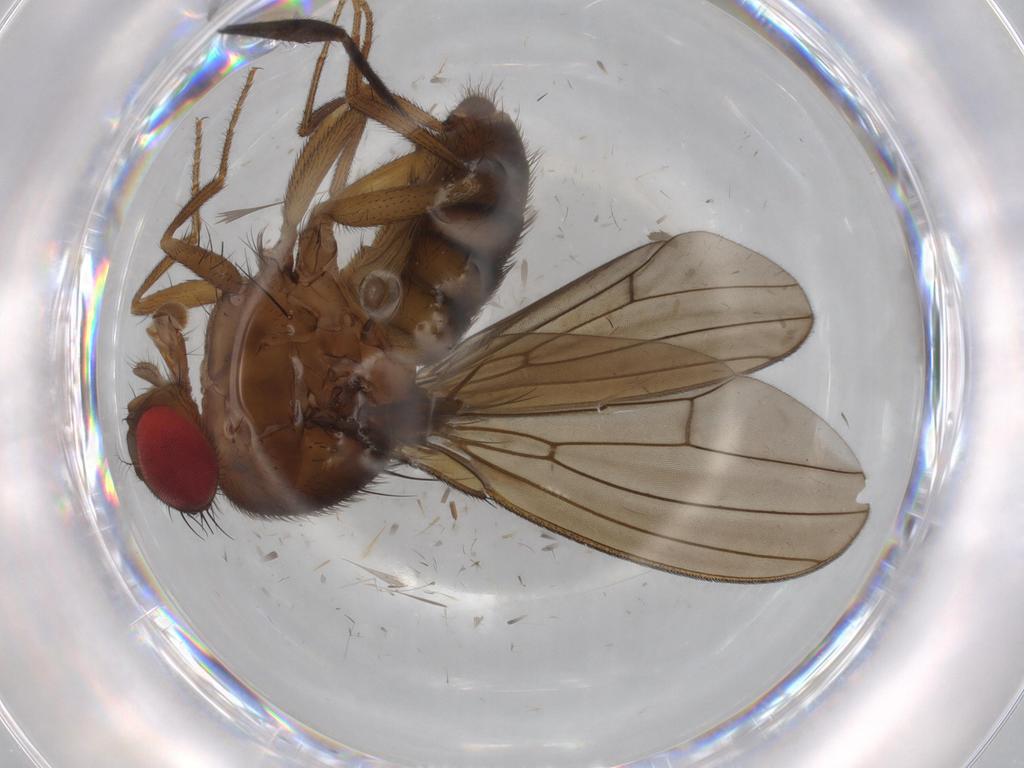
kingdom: Animalia
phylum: Arthropoda
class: Insecta
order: Diptera
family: Drosophilidae
